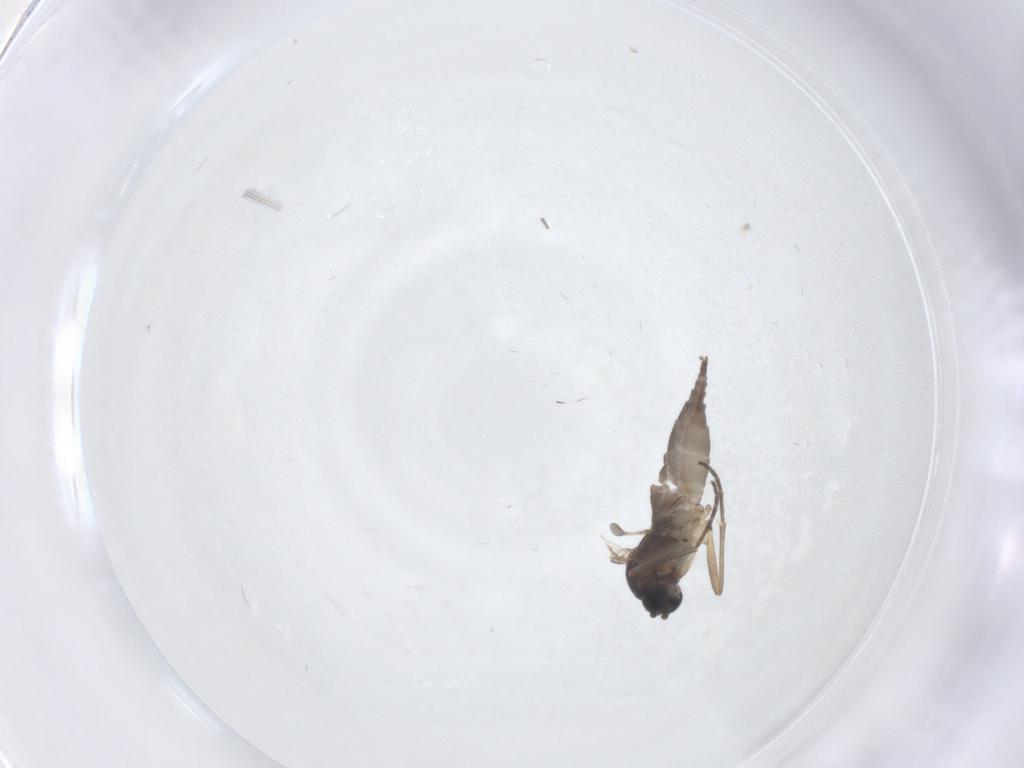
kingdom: Animalia
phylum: Arthropoda
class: Insecta
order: Diptera
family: Sciaridae
